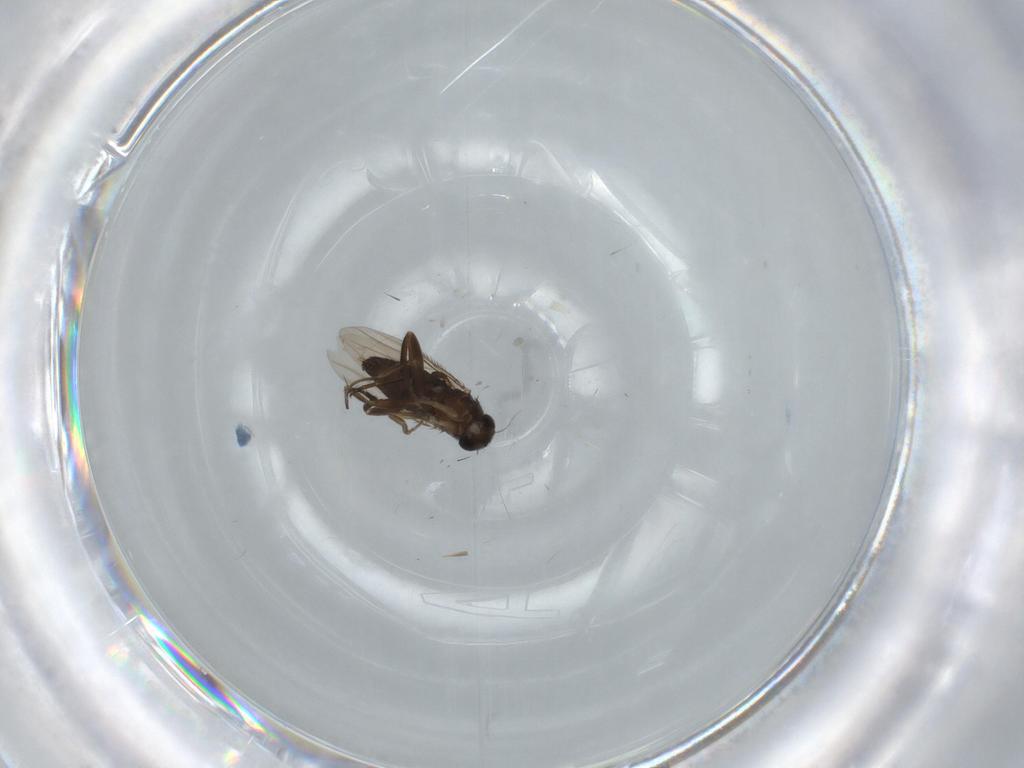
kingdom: Animalia
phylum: Arthropoda
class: Insecta
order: Diptera
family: Phoridae
